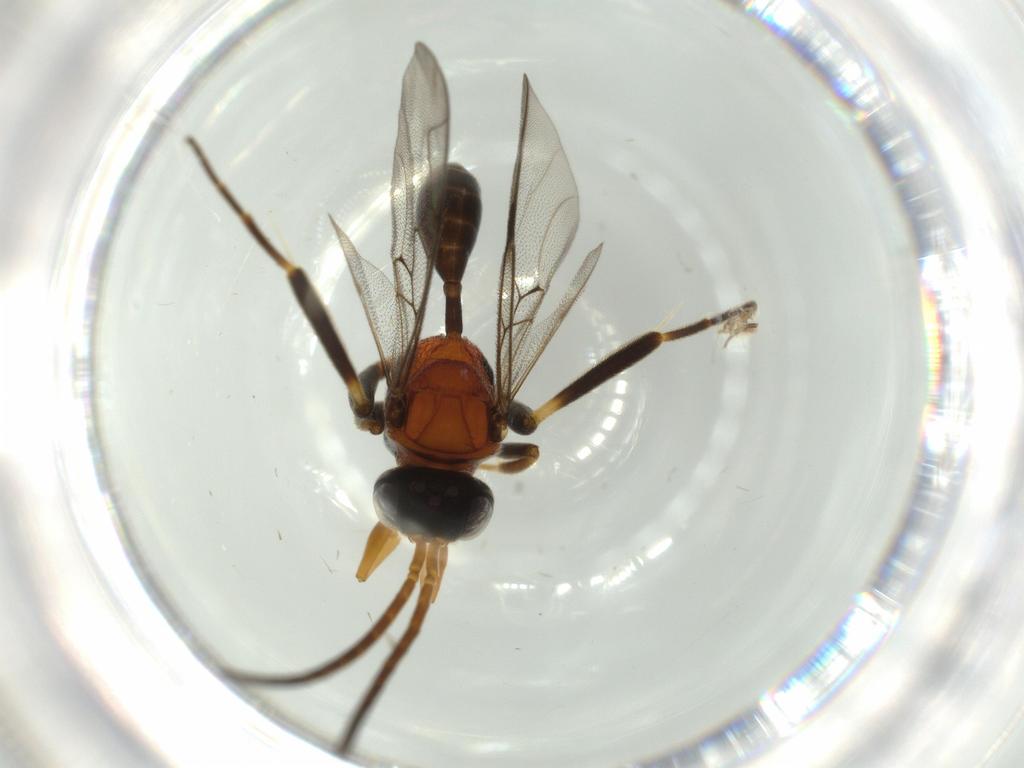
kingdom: Animalia
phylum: Arthropoda
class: Insecta
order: Hymenoptera
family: Evaniidae
